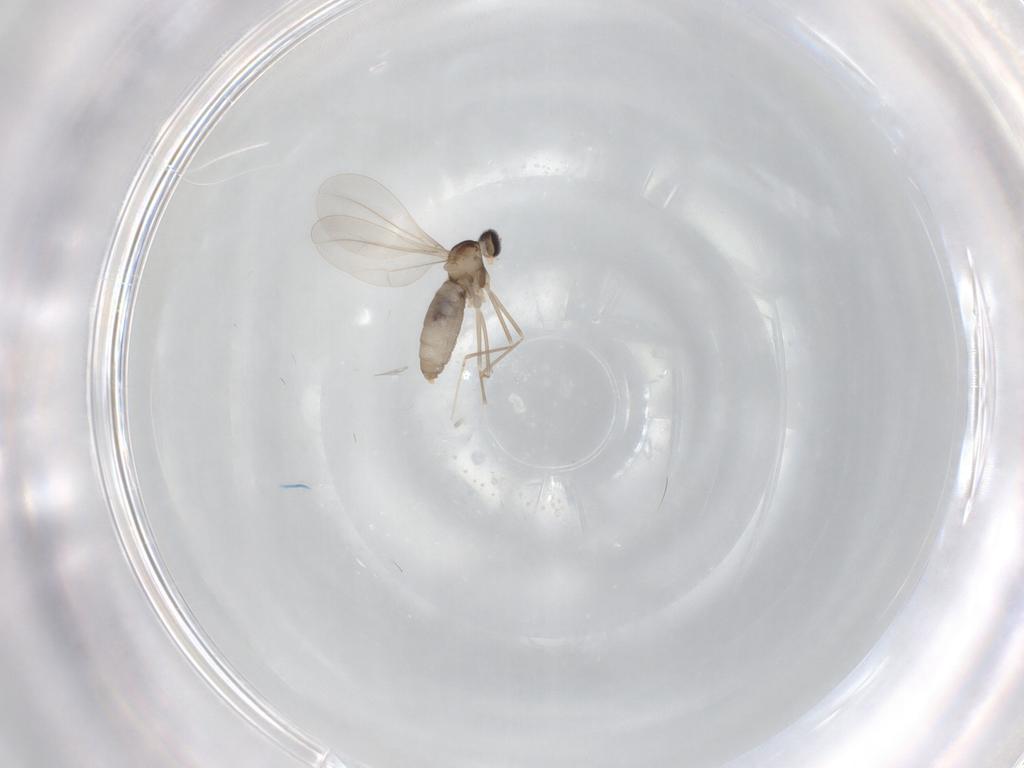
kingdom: Animalia
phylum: Arthropoda
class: Insecta
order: Diptera
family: Cecidomyiidae
